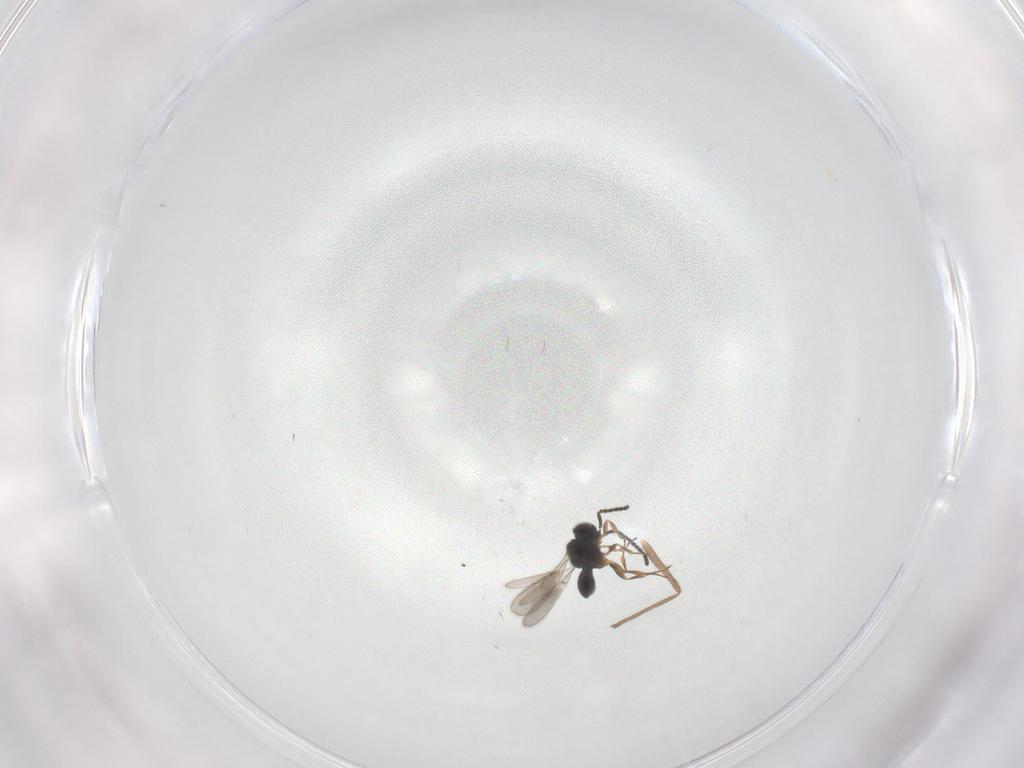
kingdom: Animalia
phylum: Arthropoda
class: Insecta
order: Hymenoptera
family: Scelionidae
